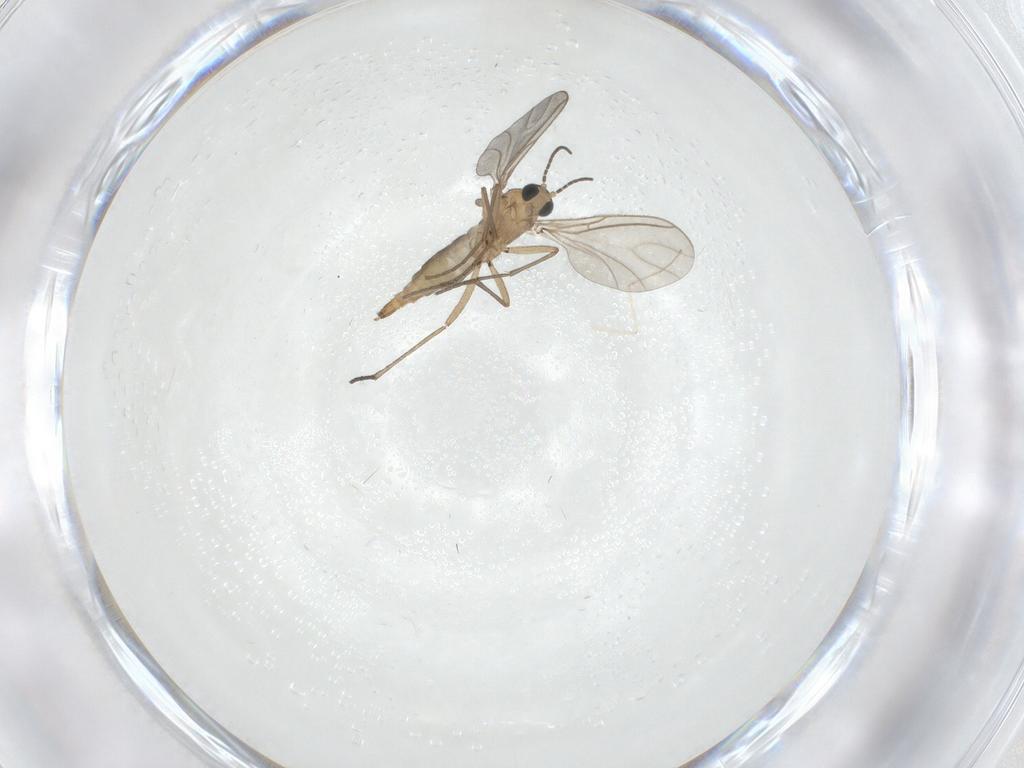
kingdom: Animalia
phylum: Arthropoda
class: Insecta
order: Diptera
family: Sciaridae
